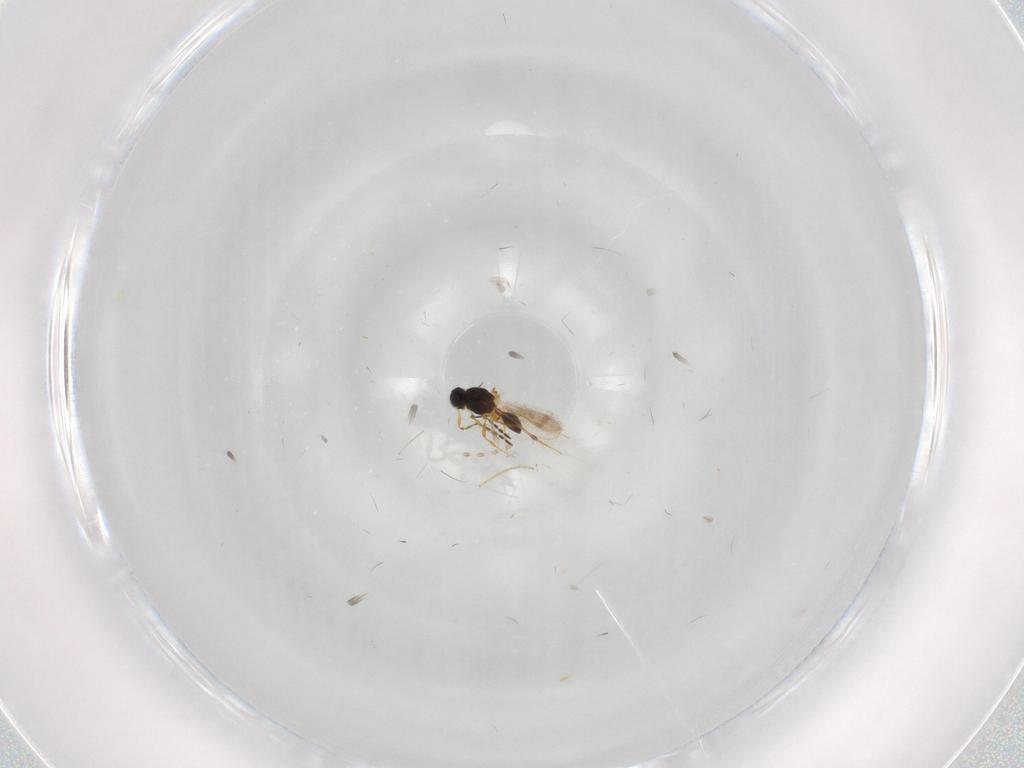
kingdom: Animalia
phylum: Arthropoda
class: Insecta
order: Hymenoptera
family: Platygastridae
